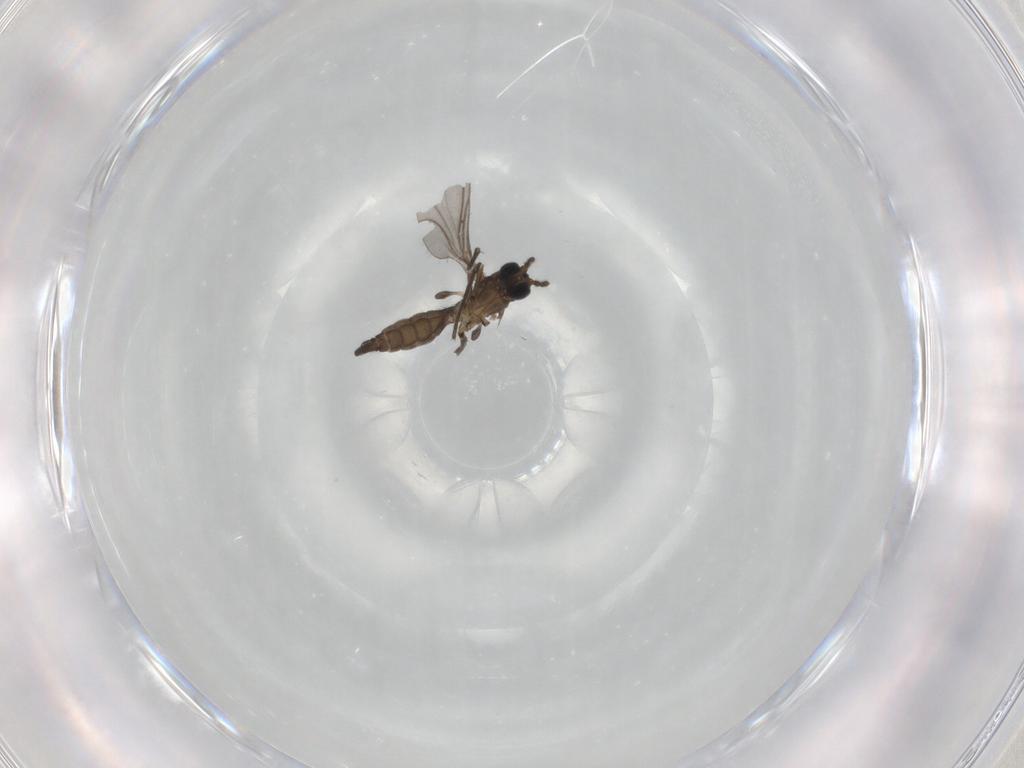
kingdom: Animalia
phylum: Arthropoda
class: Insecta
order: Diptera
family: Sciaridae
